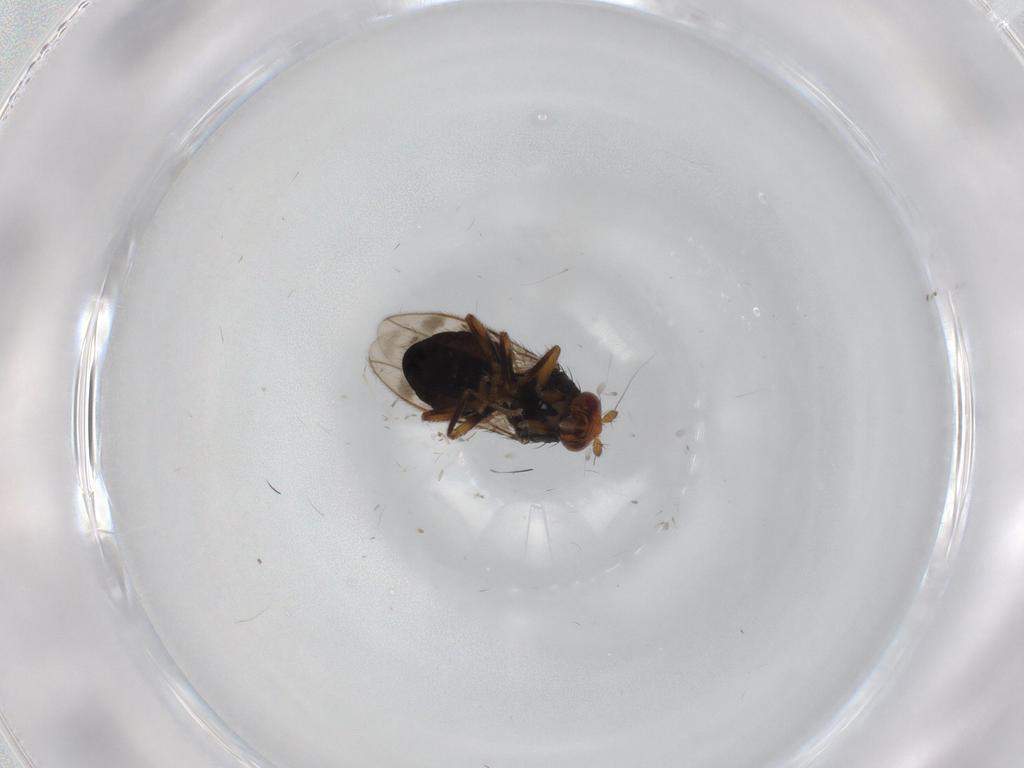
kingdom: Animalia
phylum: Arthropoda
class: Insecta
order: Diptera
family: Sphaeroceridae
